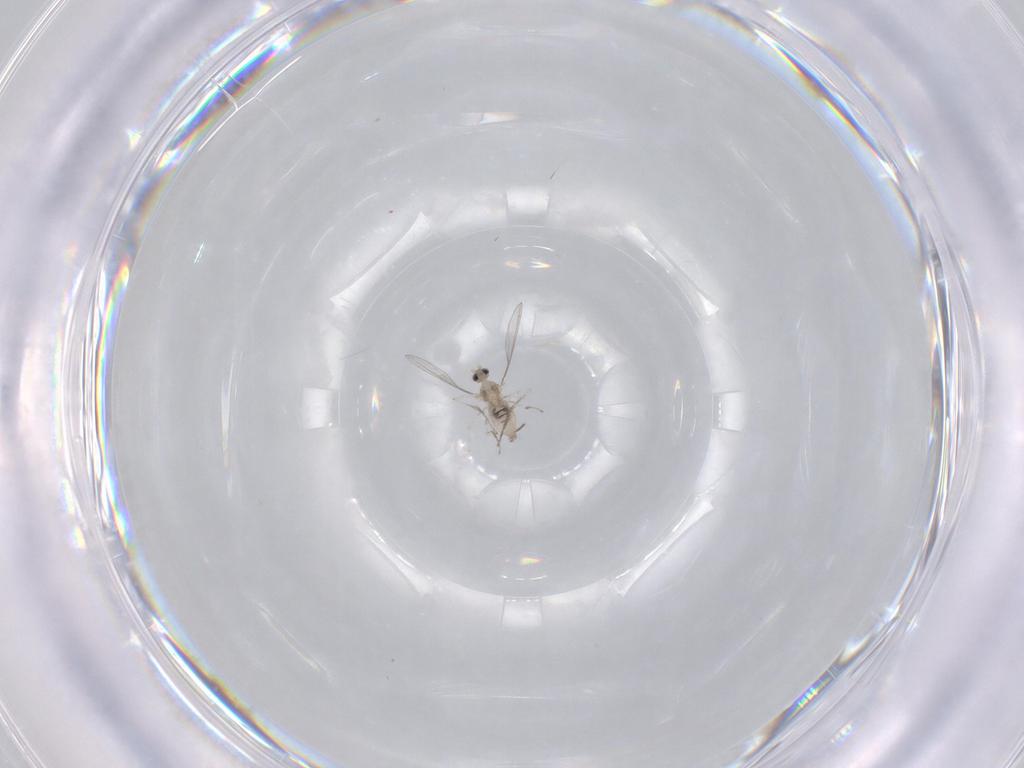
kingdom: Animalia
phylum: Arthropoda
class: Insecta
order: Diptera
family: Cecidomyiidae
